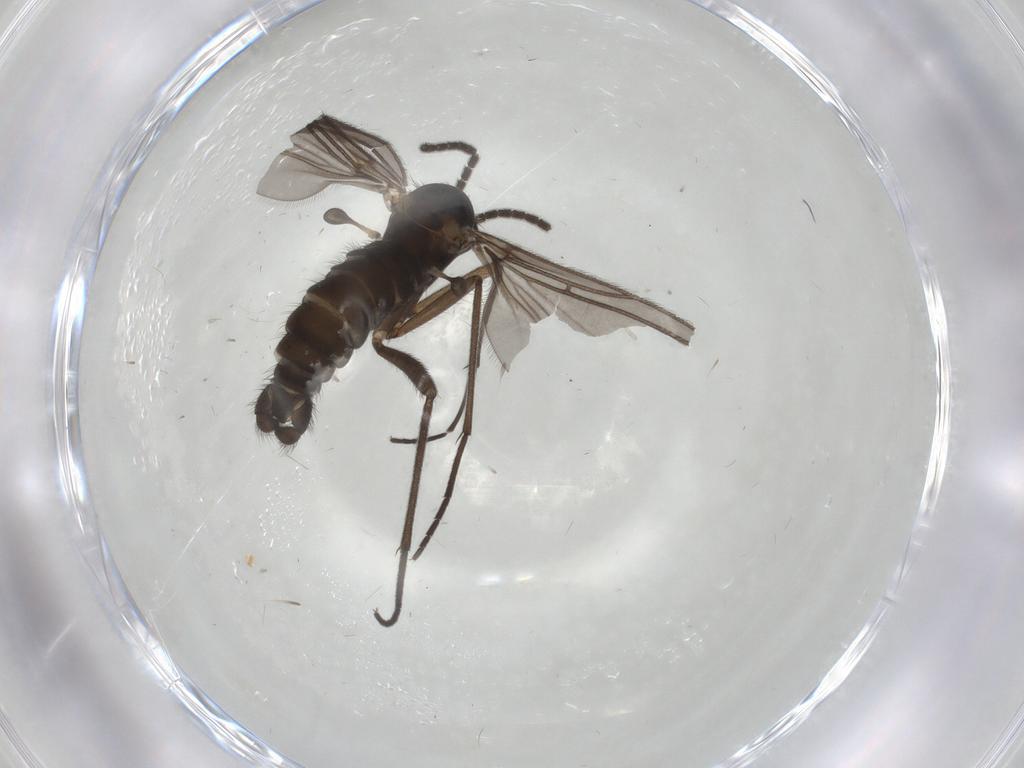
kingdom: Animalia
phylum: Arthropoda
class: Insecta
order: Diptera
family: Sciaridae
